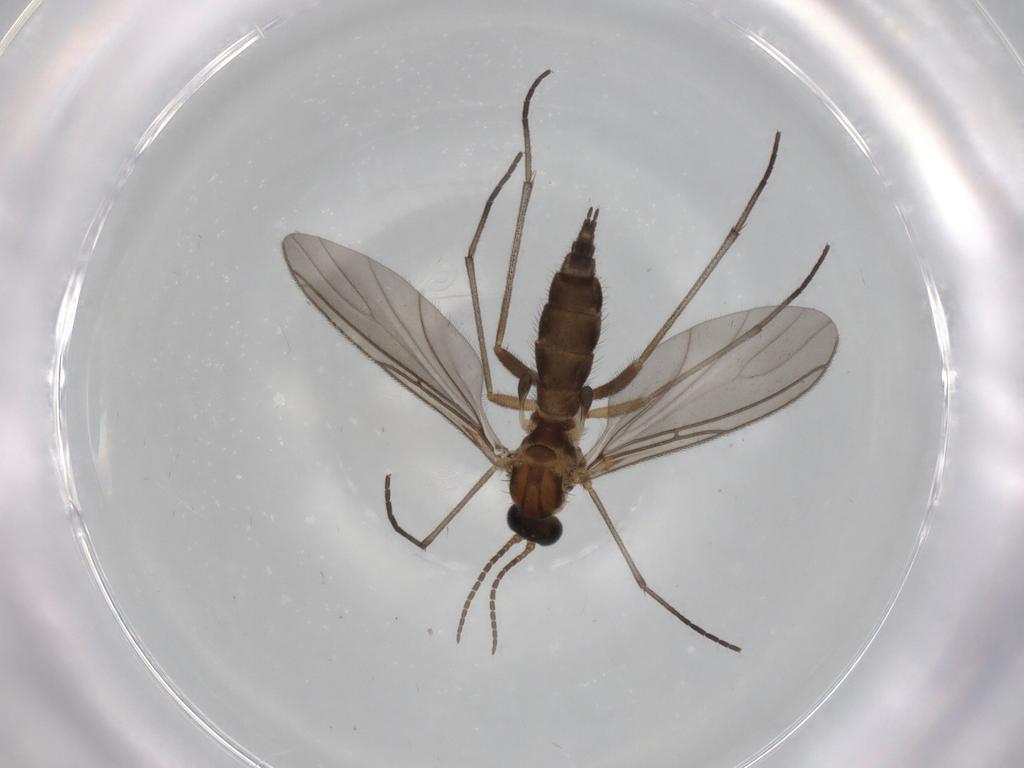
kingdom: Animalia
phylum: Arthropoda
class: Insecta
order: Diptera
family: Sciaridae
